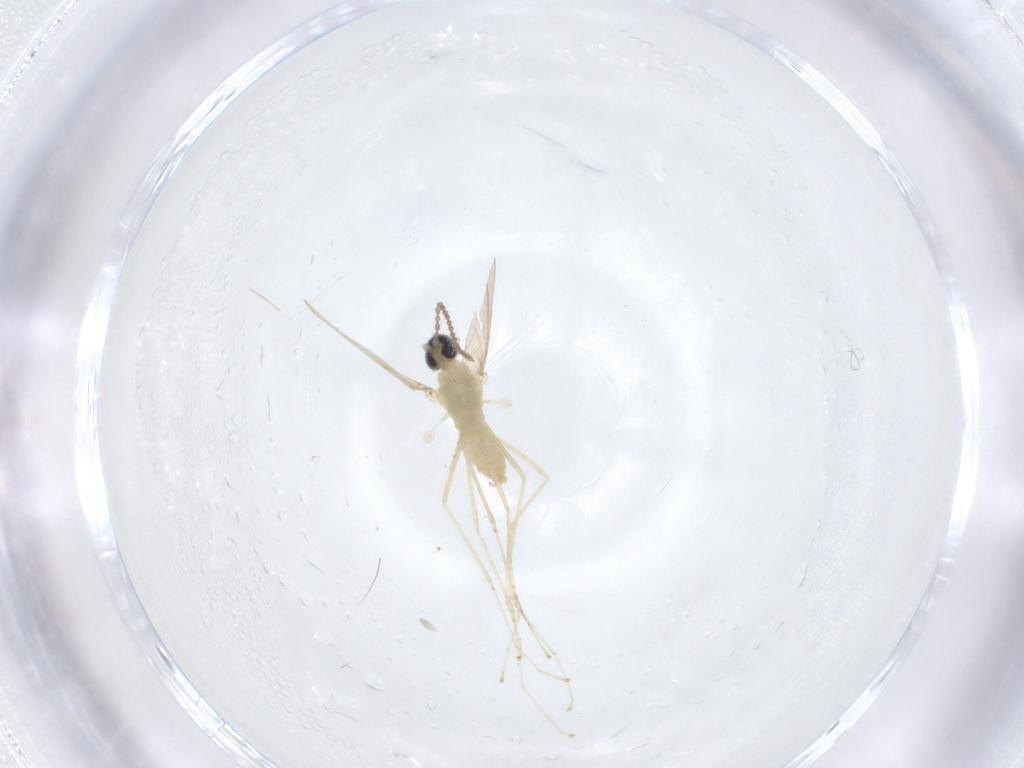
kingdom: Animalia
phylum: Arthropoda
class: Insecta
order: Diptera
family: Cecidomyiidae
